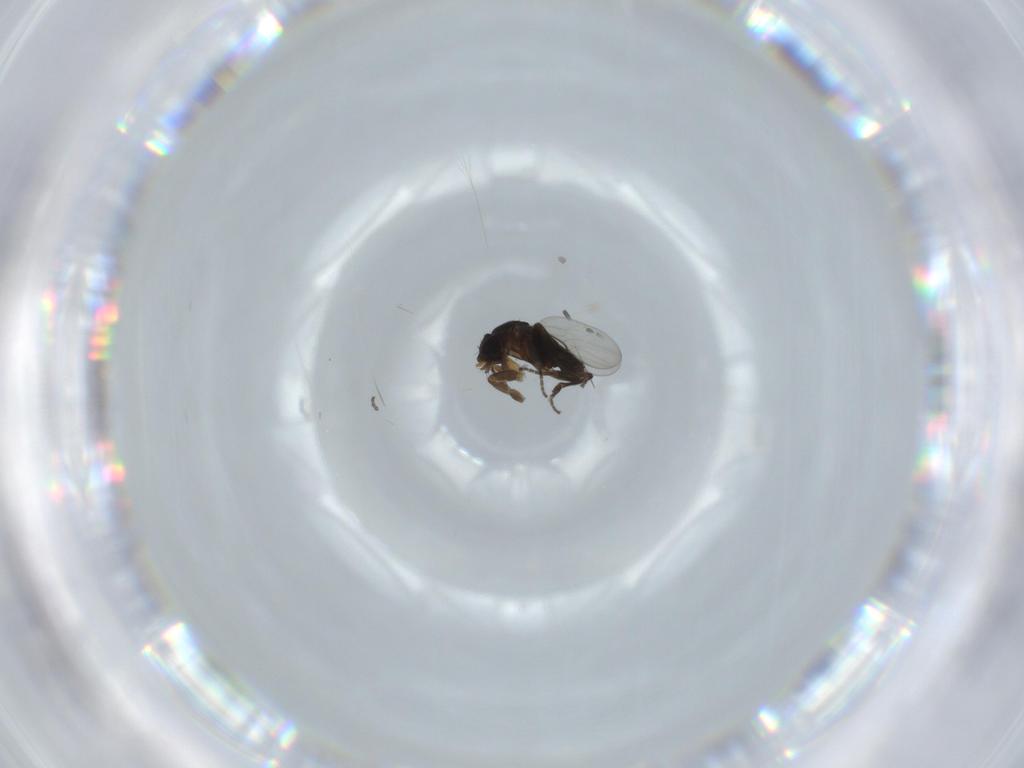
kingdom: Animalia
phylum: Arthropoda
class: Insecta
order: Diptera
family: Phoridae
